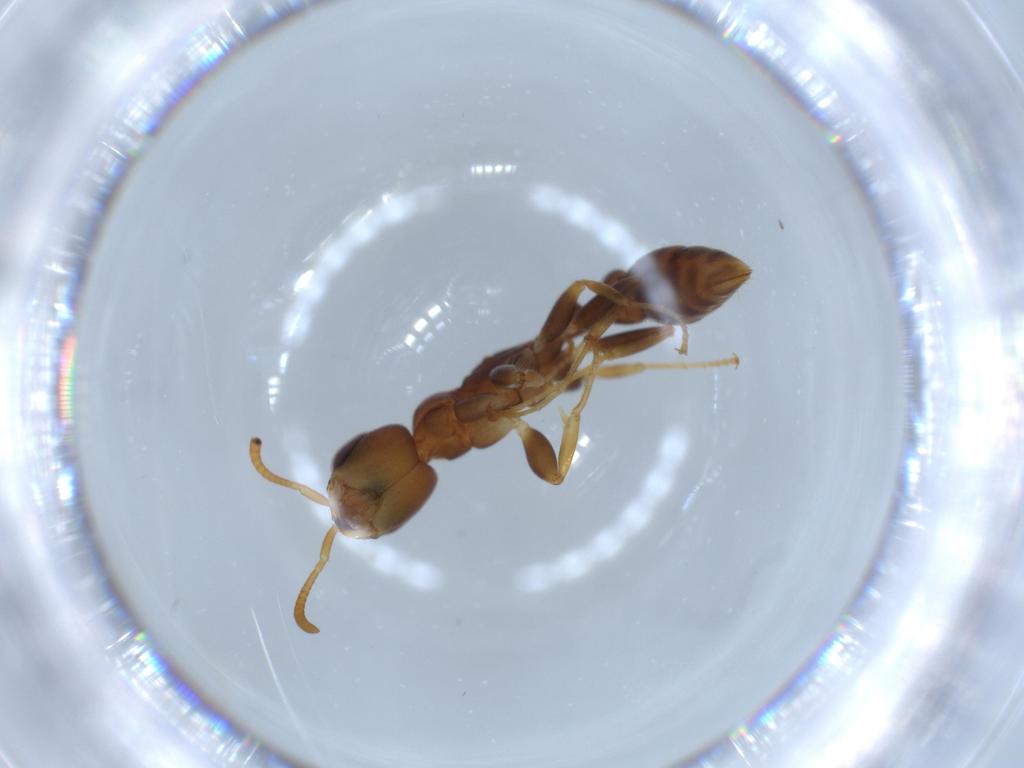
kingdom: Animalia
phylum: Arthropoda
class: Insecta
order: Hymenoptera
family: Formicidae
